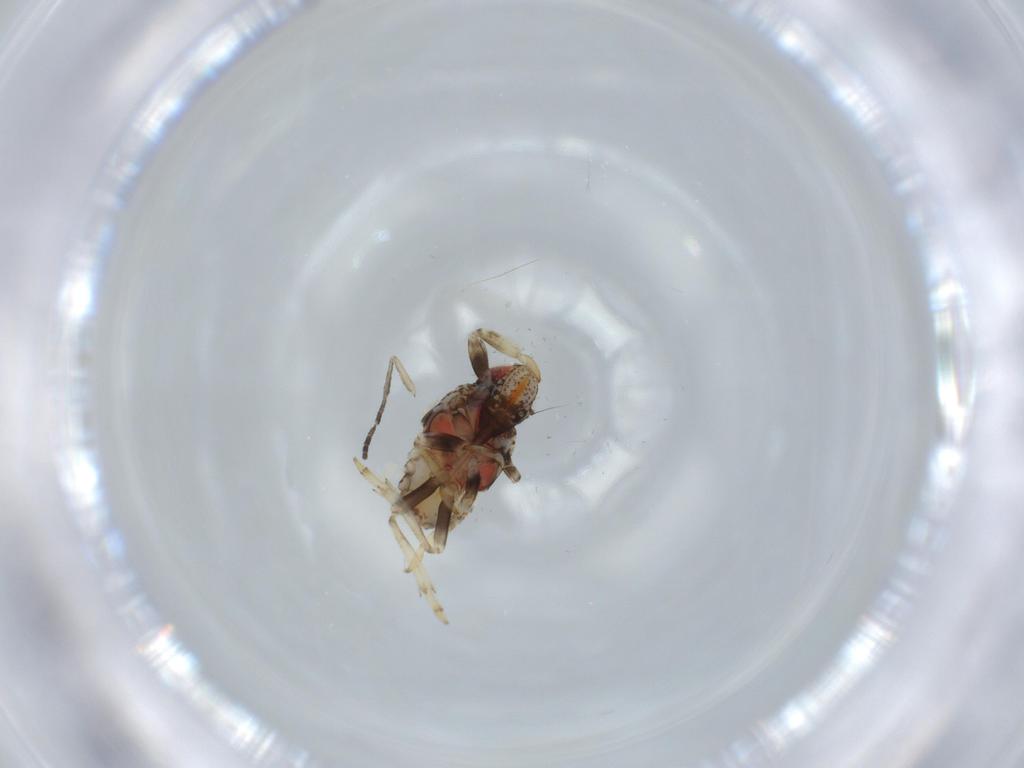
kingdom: Animalia
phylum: Arthropoda
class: Insecta
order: Hemiptera
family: Issidae
